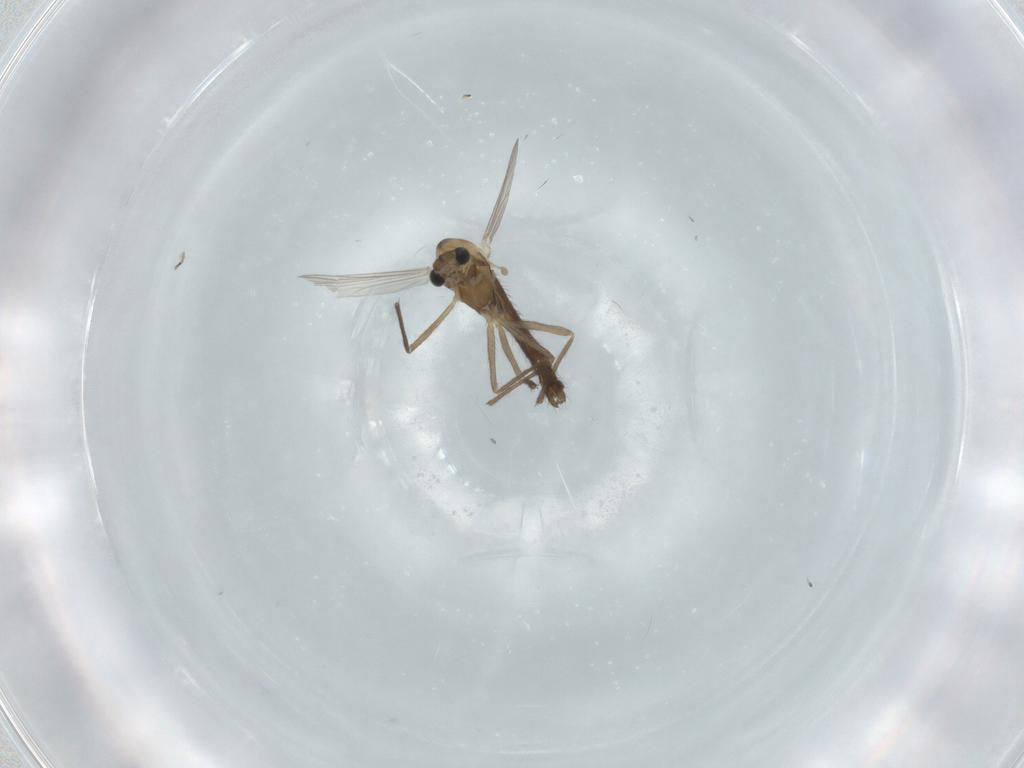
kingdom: Animalia
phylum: Arthropoda
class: Insecta
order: Diptera
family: Chironomidae
